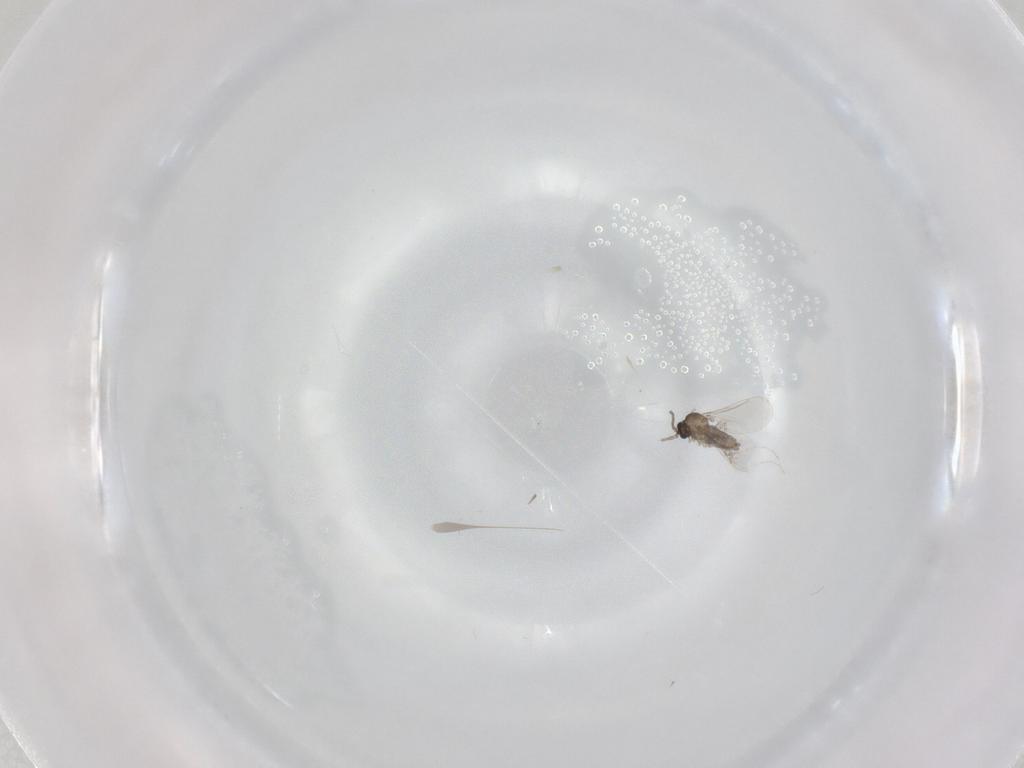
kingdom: Animalia
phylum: Arthropoda
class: Insecta
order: Diptera
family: Cecidomyiidae
